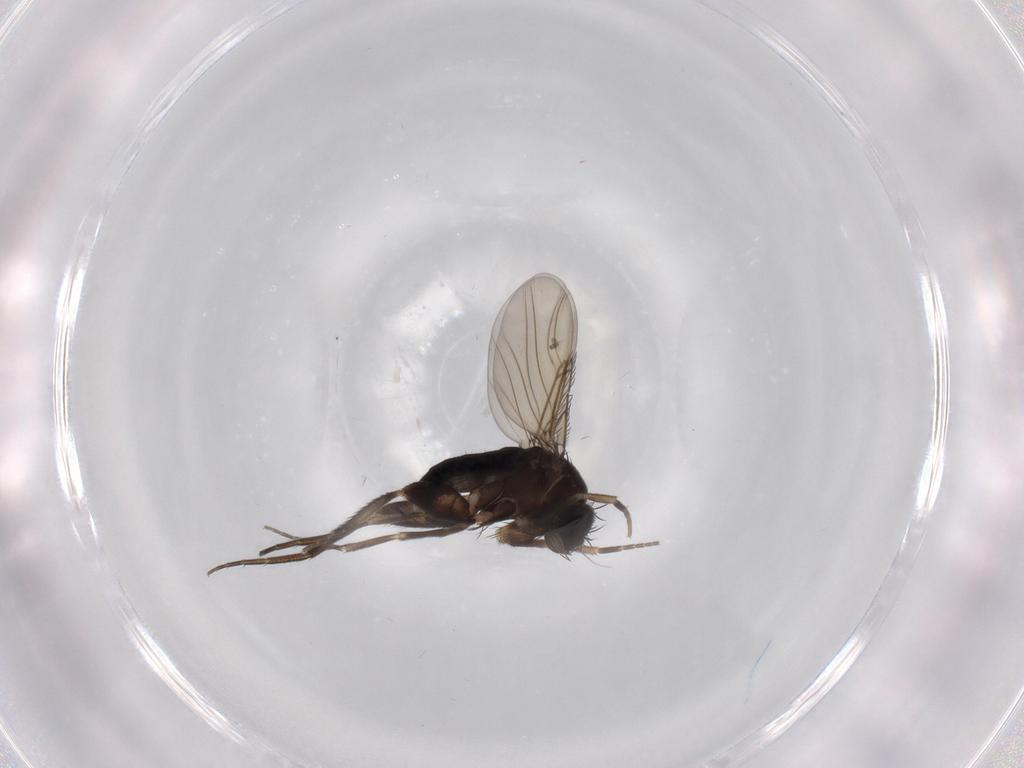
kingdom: Animalia
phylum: Arthropoda
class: Insecta
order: Diptera
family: Phoridae
